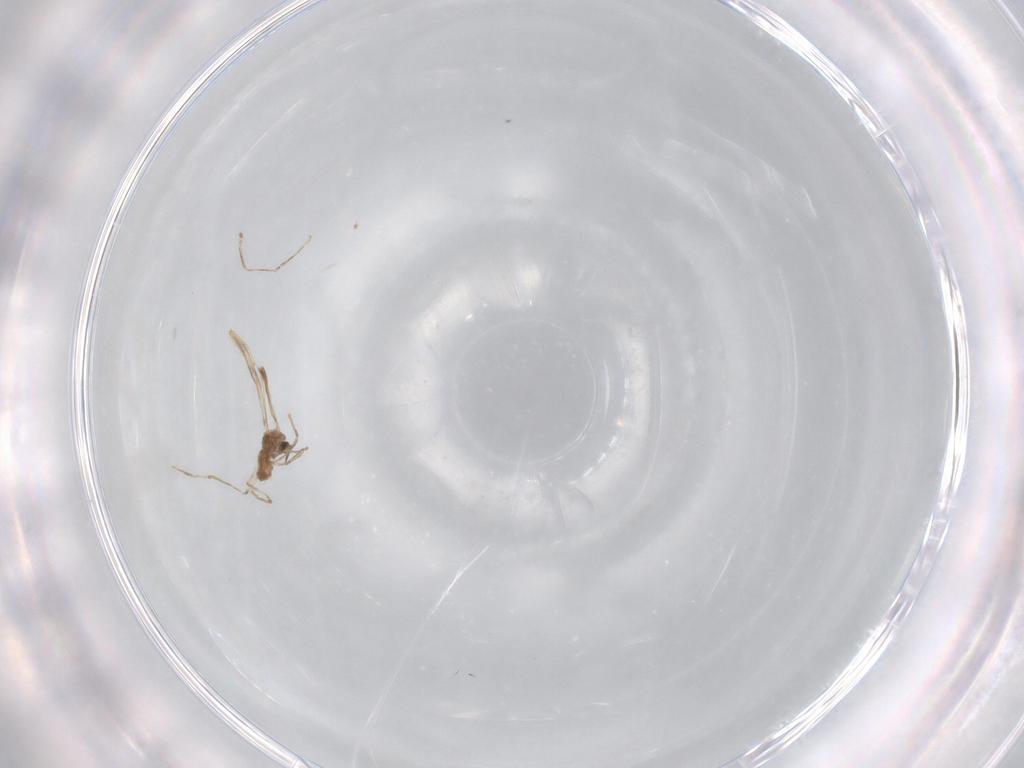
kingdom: Animalia
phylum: Arthropoda
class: Insecta
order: Diptera
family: Cecidomyiidae
